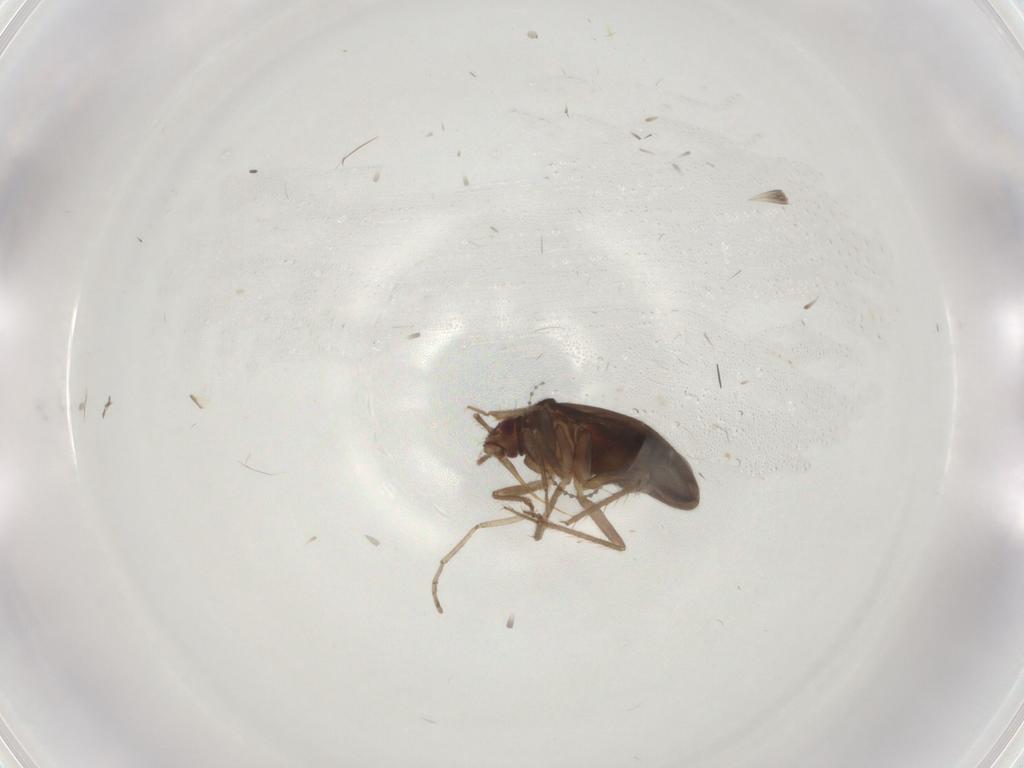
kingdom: Animalia
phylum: Arthropoda
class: Insecta
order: Hemiptera
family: Ceratocombidae
